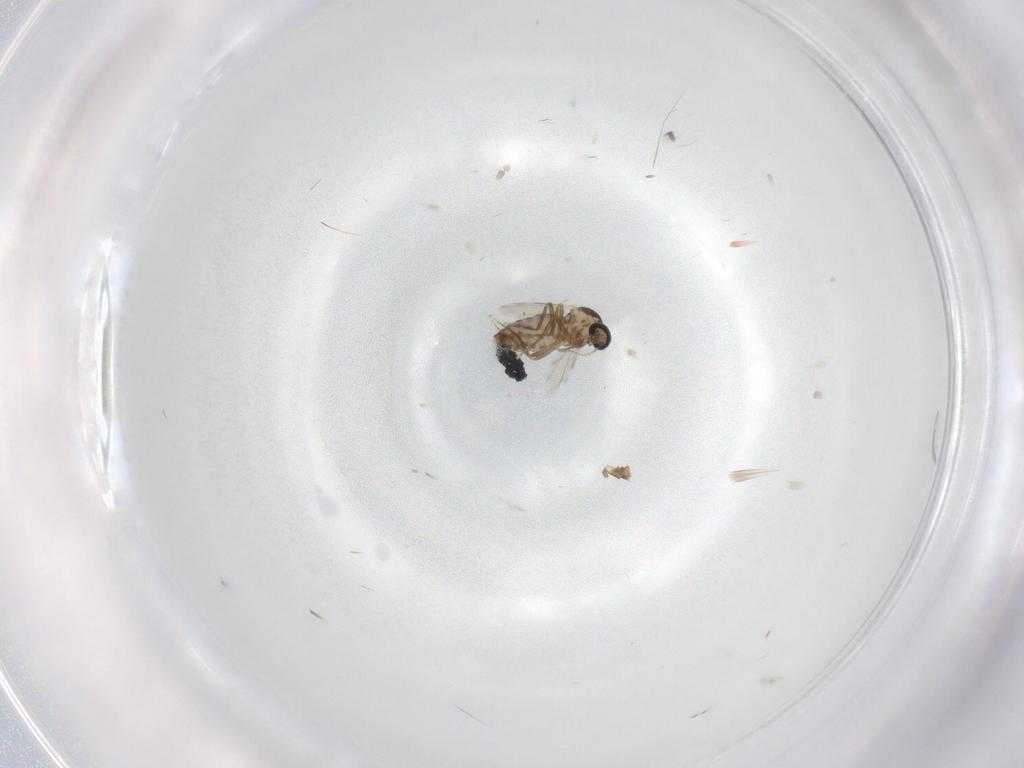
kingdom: Animalia
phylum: Arthropoda
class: Insecta
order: Diptera
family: Ceratopogonidae
